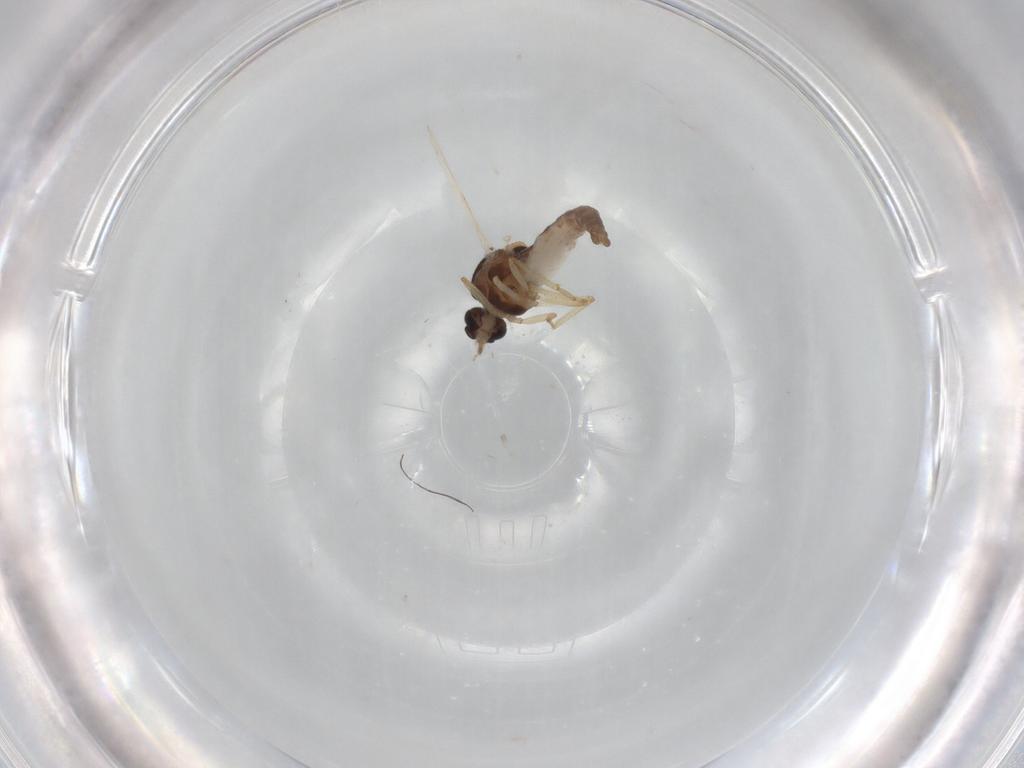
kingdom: Animalia
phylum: Arthropoda
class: Insecta
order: Diptera
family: Ceratopogonidae
